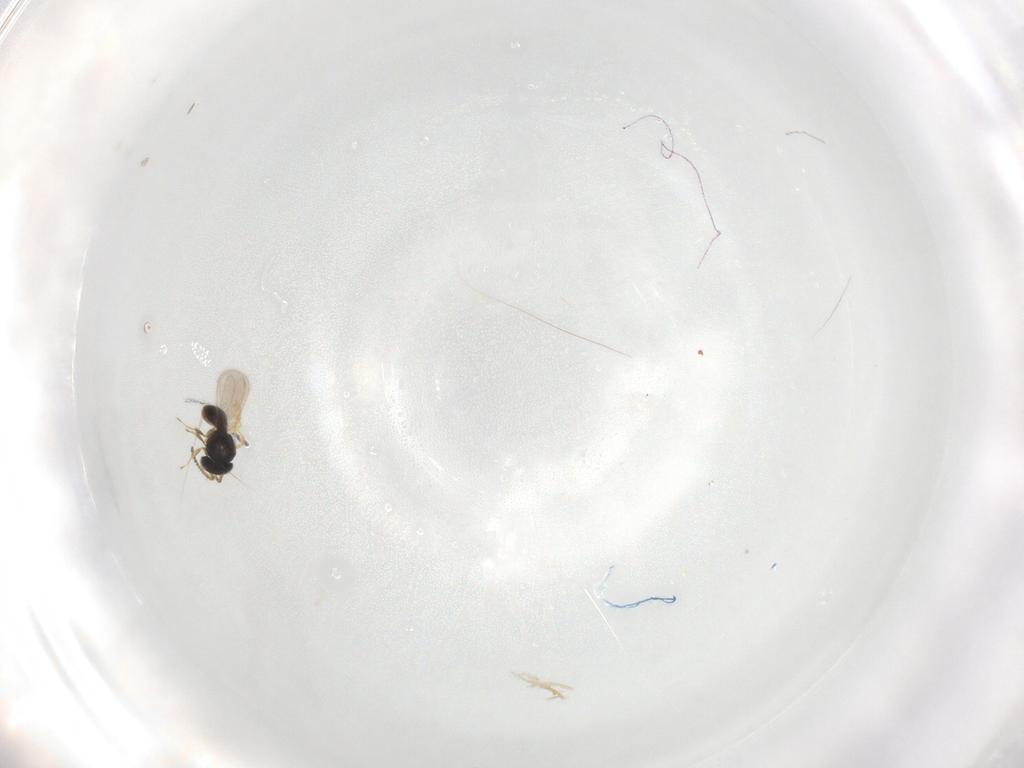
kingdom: Animalia
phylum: Arthropoda
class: Insecta
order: Hymenoptera
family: Scelionidae
